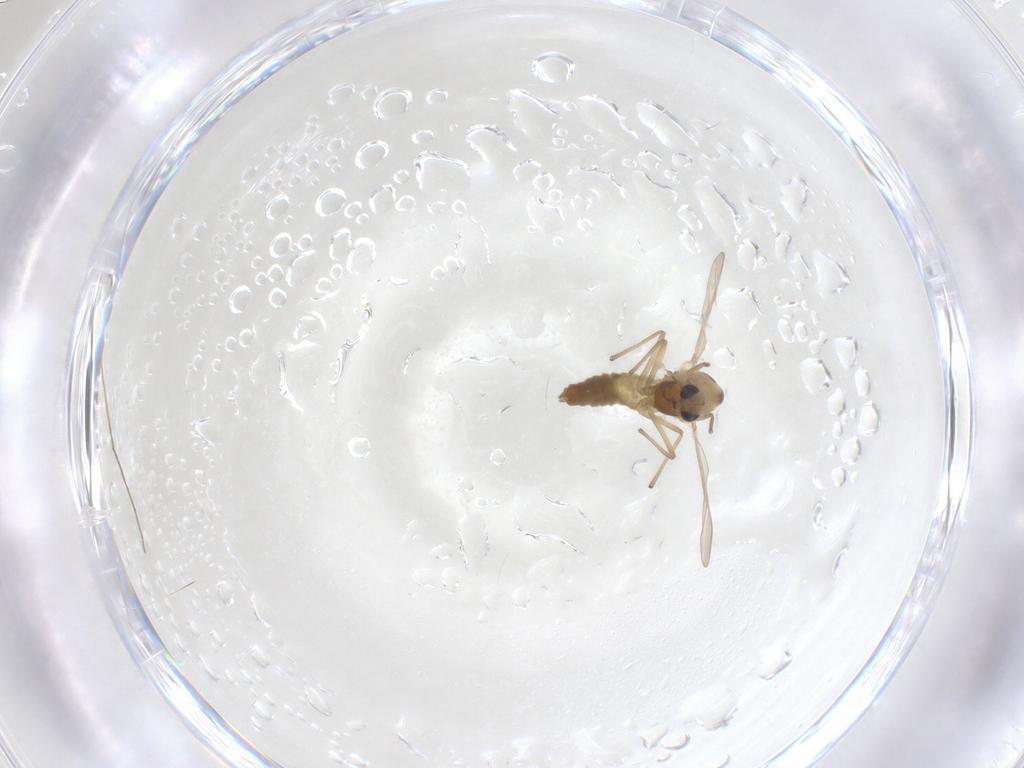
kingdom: Animalia
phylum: Arthropoda
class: Insecta
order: Diptera
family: Chironomidae
